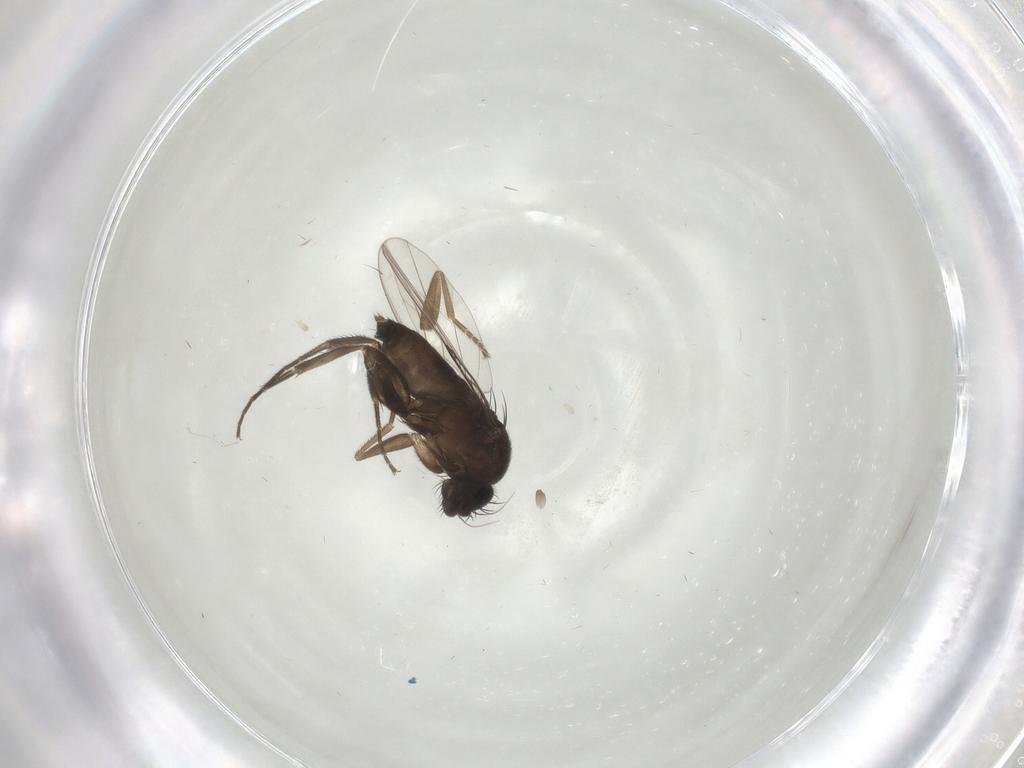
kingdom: Animalia
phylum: Arthropoda
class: Insecta
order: Diptera
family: Phoridae
